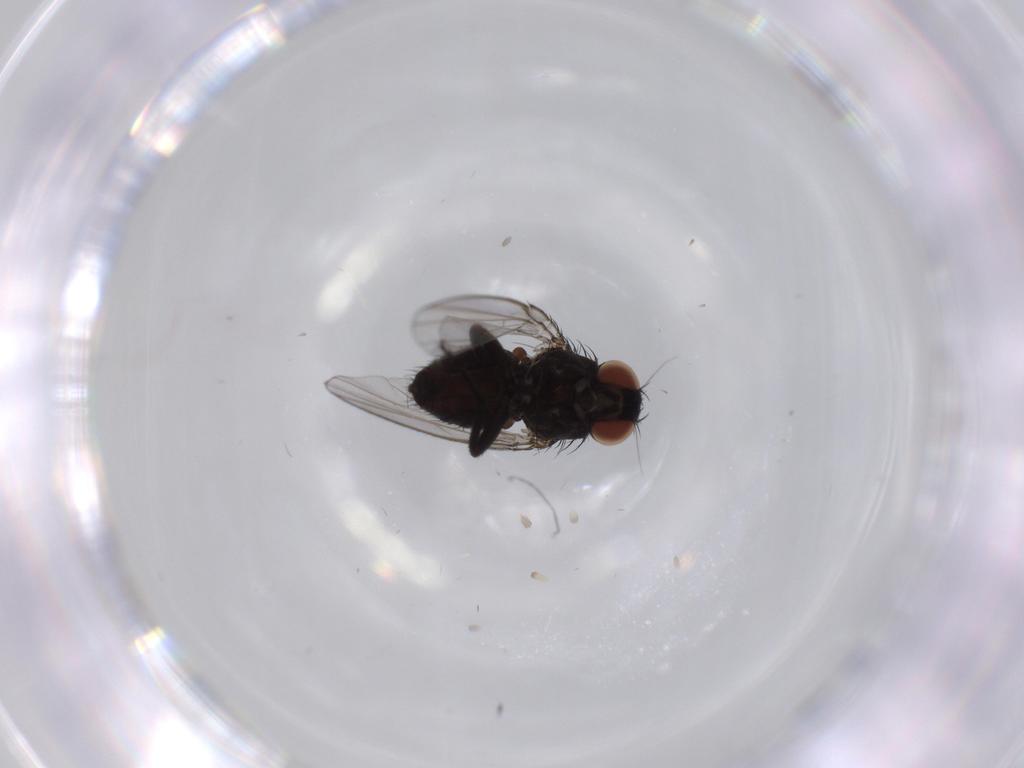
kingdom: Animalia
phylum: Arthropoda
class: Insecta
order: Diptera
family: Milichiidae
